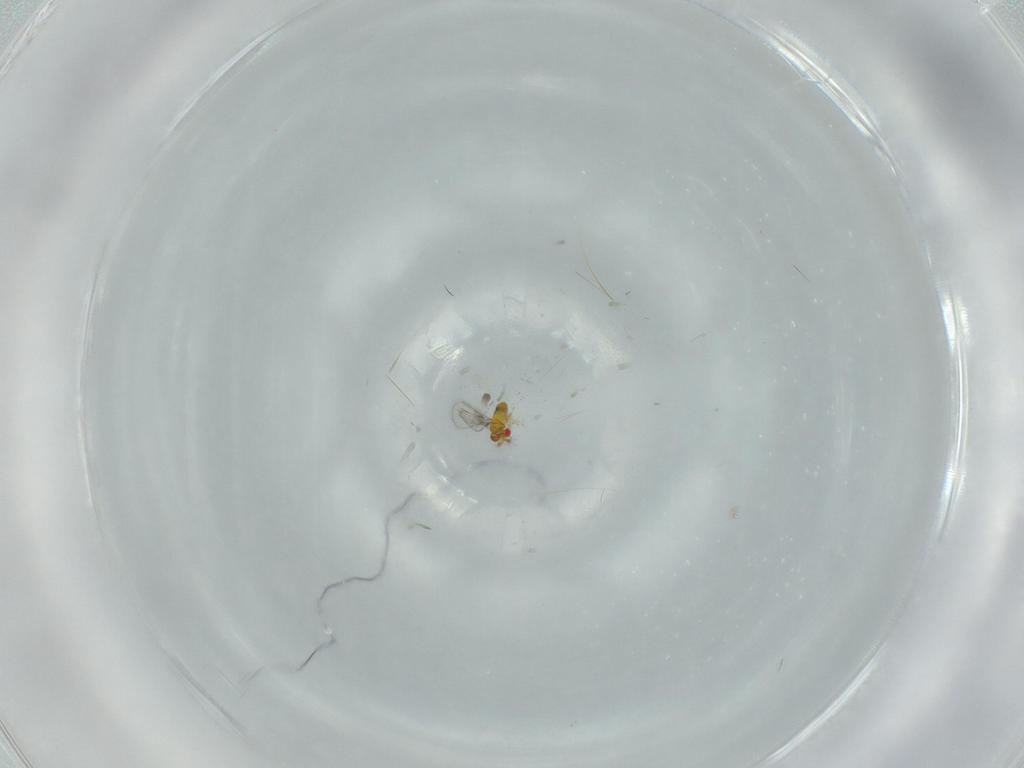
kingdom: Animalia
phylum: Arthropoda
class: Insecta
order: Hymenoptera
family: Trichogrammatidae
